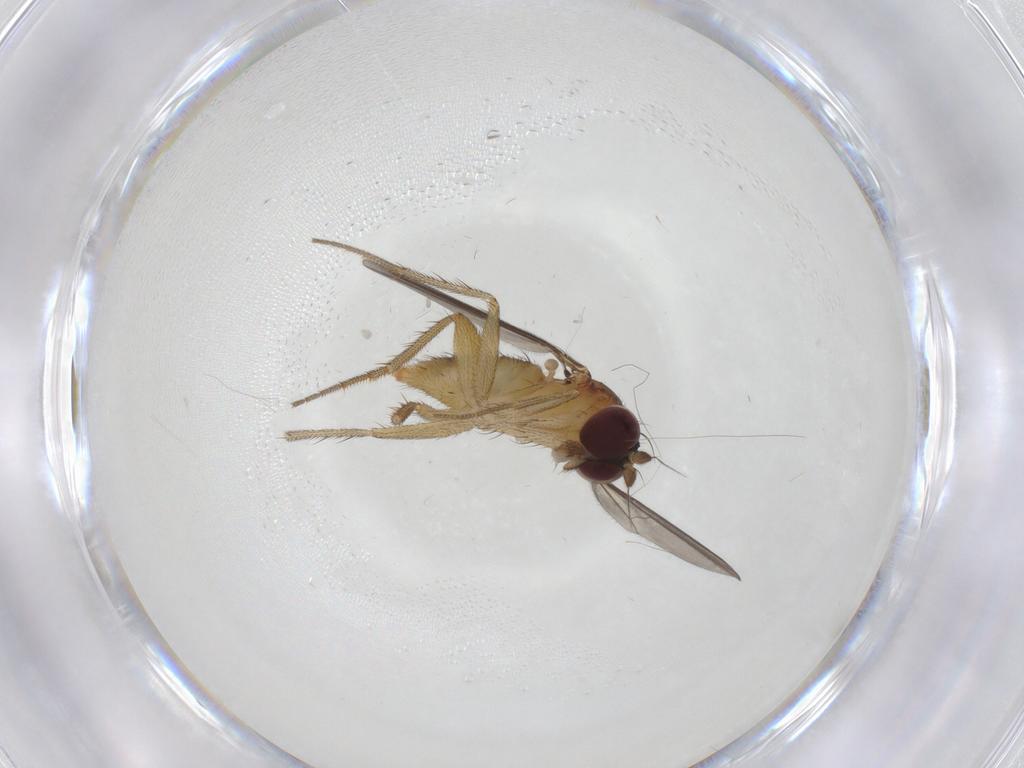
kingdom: Animalia
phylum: Arthropoda
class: Insecta
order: Diptera
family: Dolichopodidae
